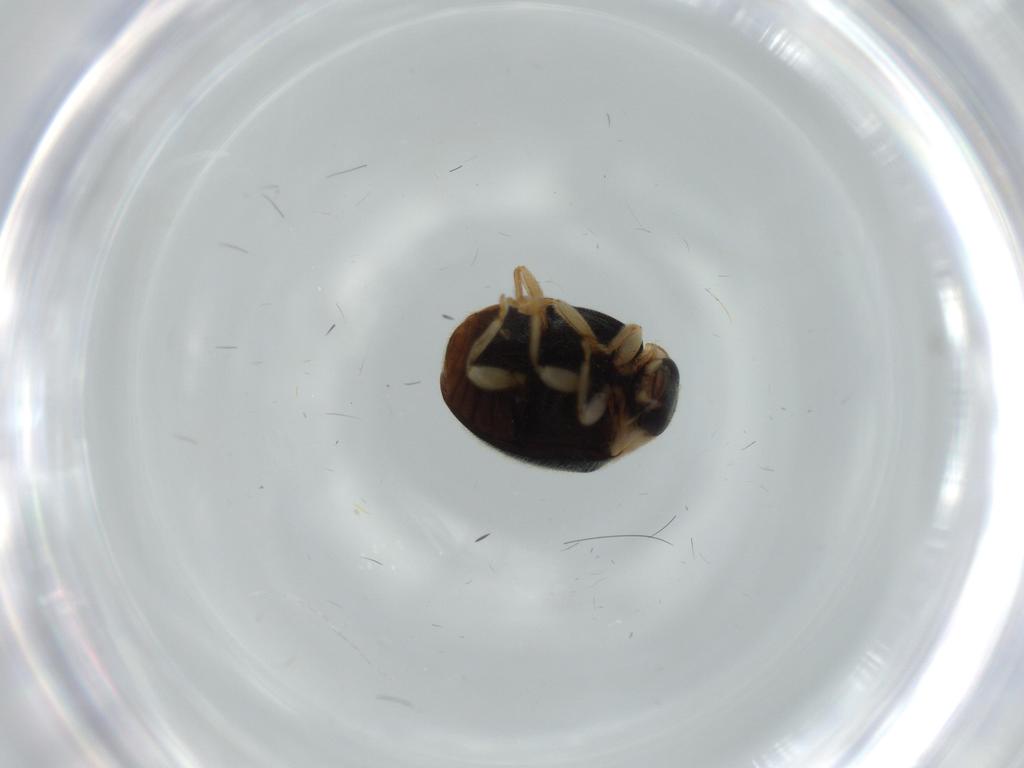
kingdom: Animalia
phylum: Arthropoda
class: Insecta
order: Coleoptera
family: Coccinellidae
